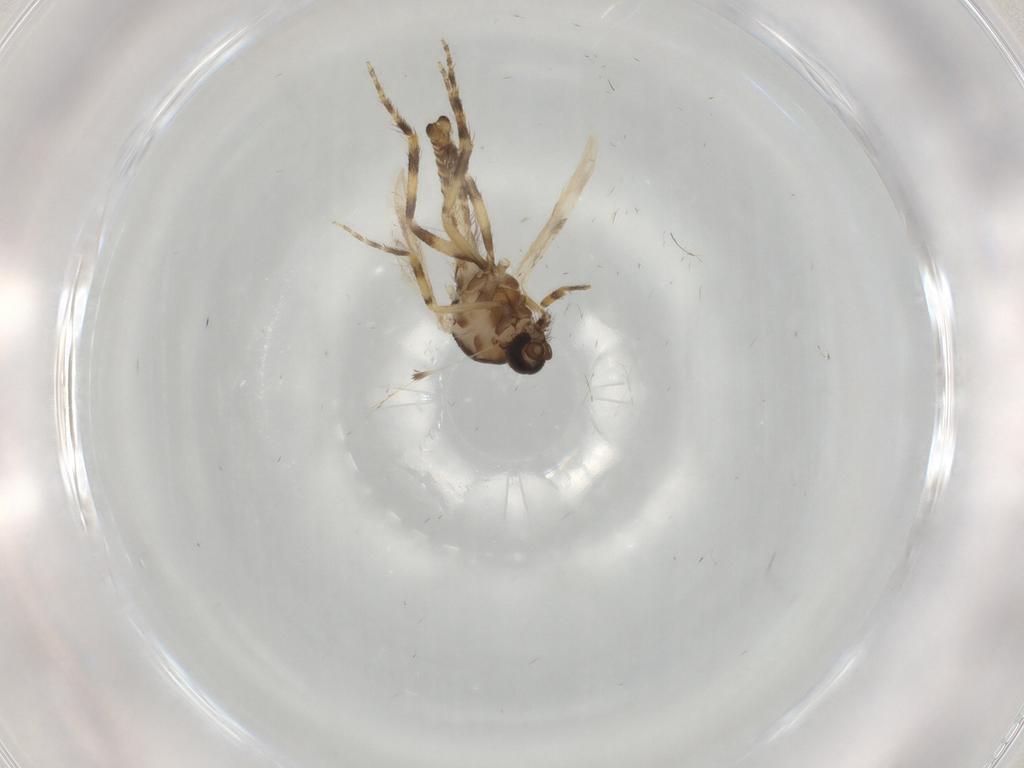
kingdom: Animalia
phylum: Arthropoda
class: Insecta
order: Diptera
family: Ceratopogonidae
